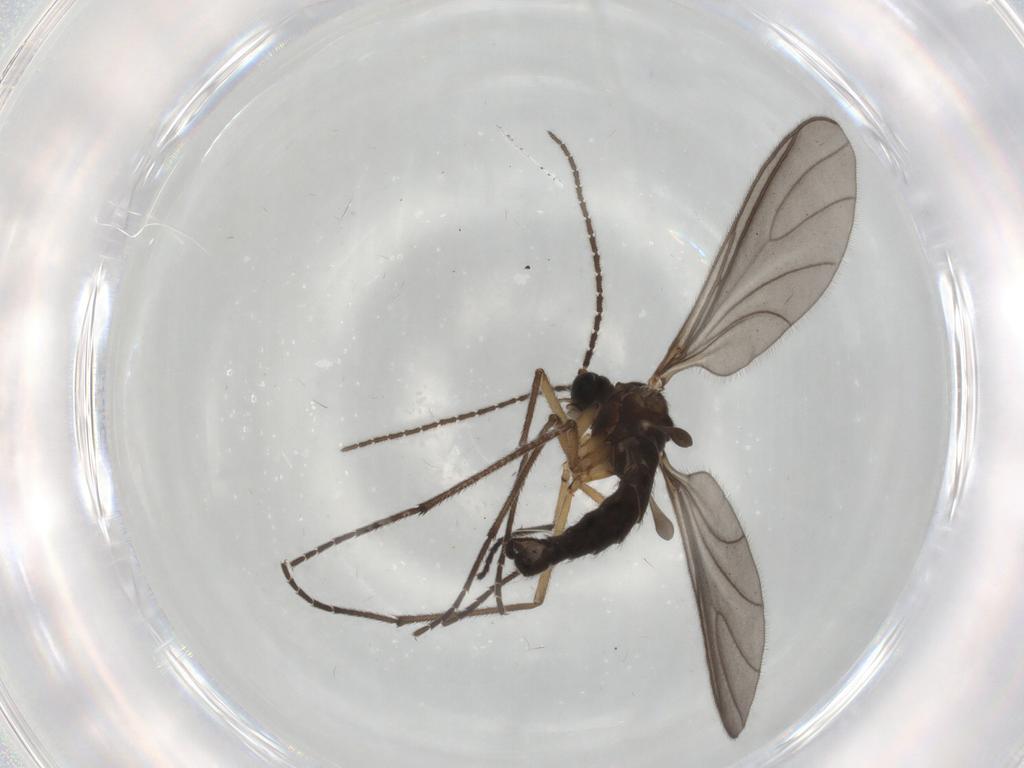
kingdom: Animalia
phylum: Arthropoda
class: Insecta
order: Diptera
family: Sciaridae
